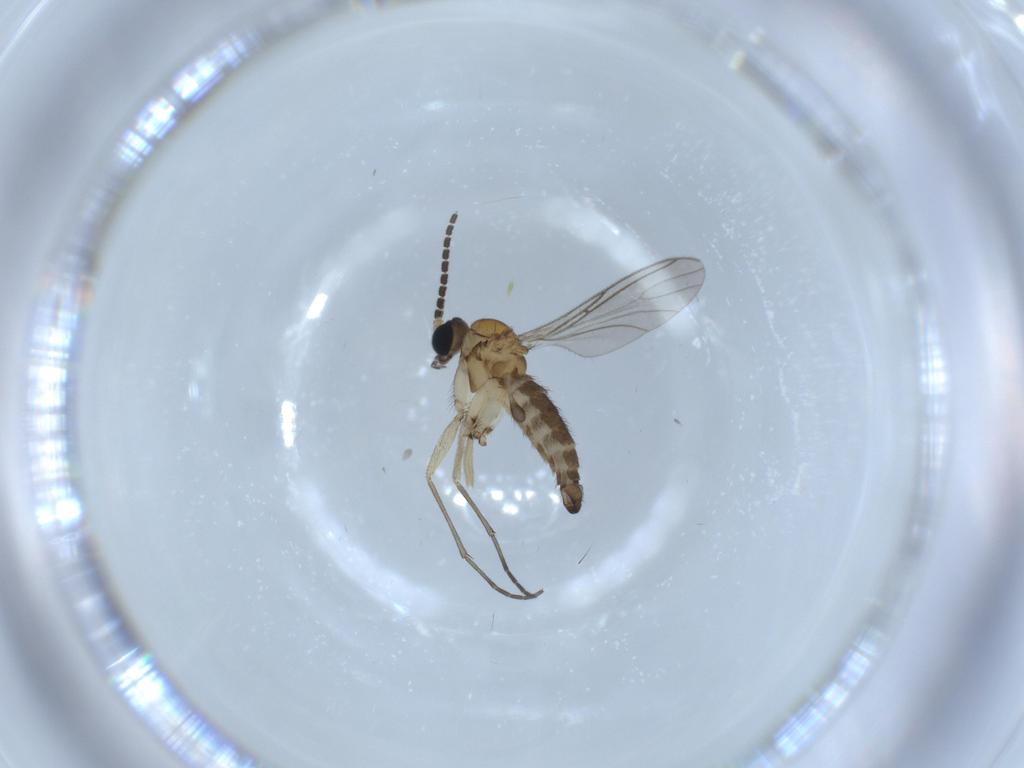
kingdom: Animalia
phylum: Arthropoda
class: Insecta
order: Diptera
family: Sciaridae
